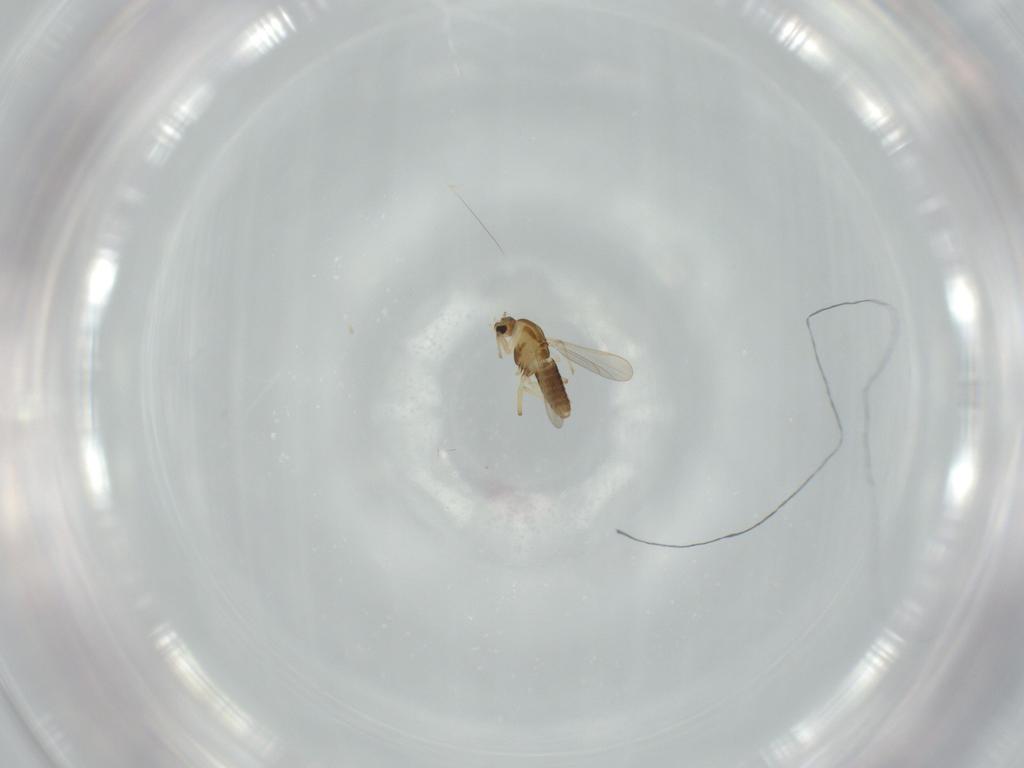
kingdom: Animalia
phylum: Arthropoda
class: Insecta
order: Diptera
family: Chironomidae
